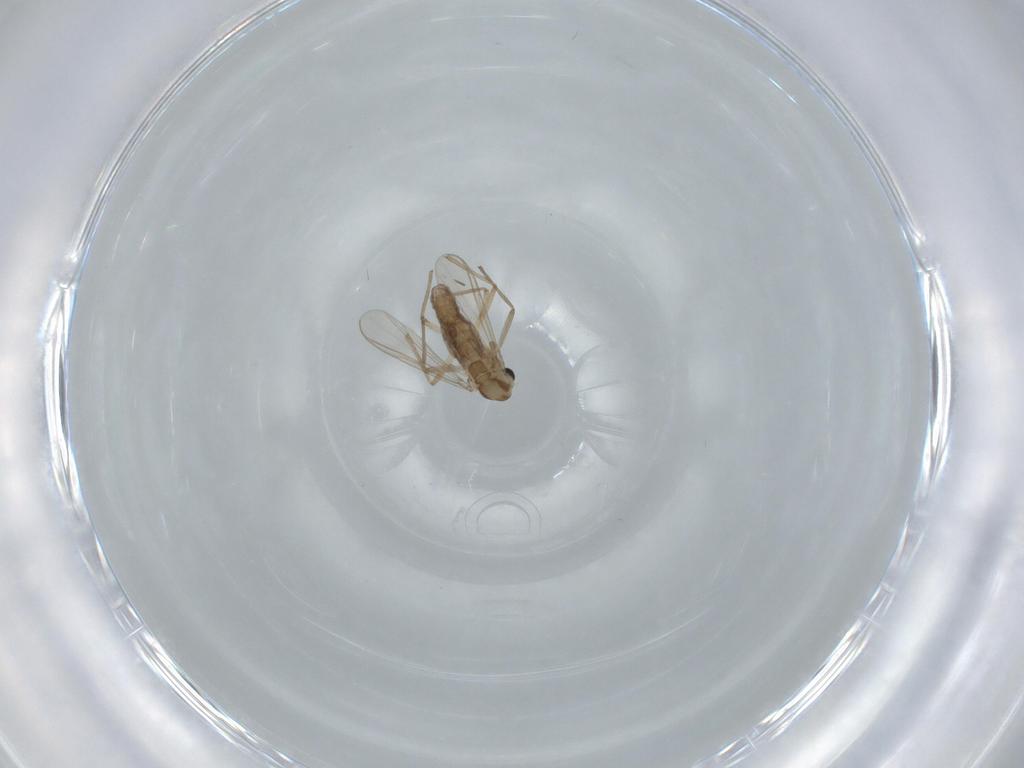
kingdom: Animalia
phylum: Arthropoda
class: Insecta
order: Diptera
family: Chironomidae
